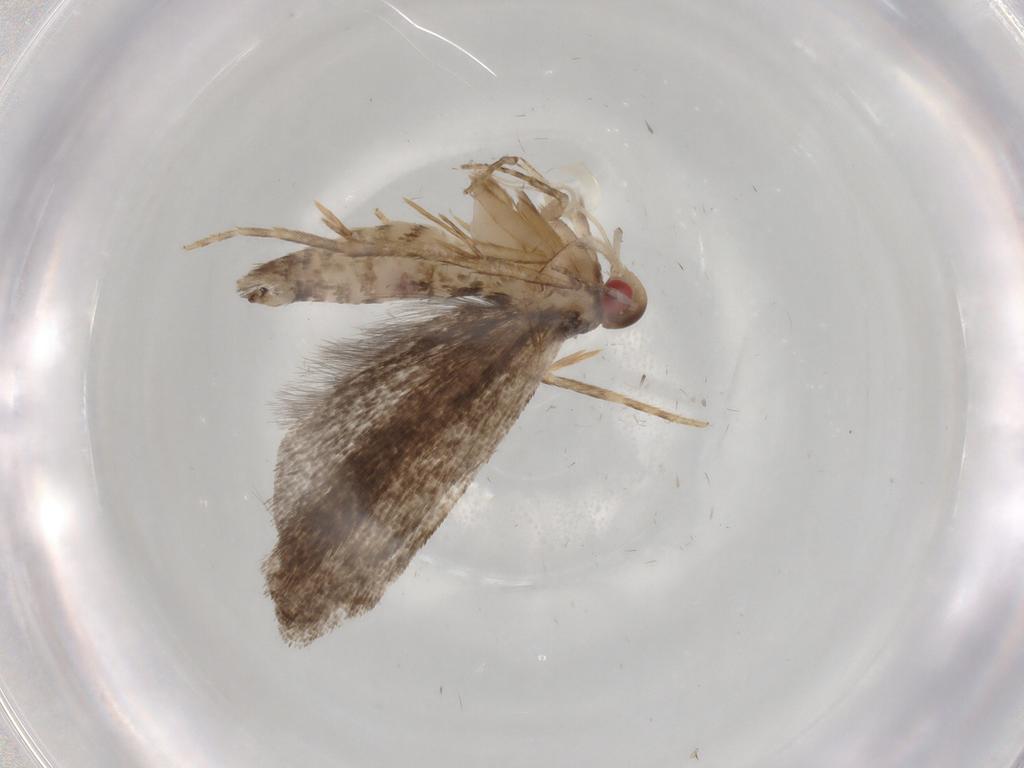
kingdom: Animalia
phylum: Arthropoda
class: Insecta
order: Lepidoptera
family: Gelechiidae
